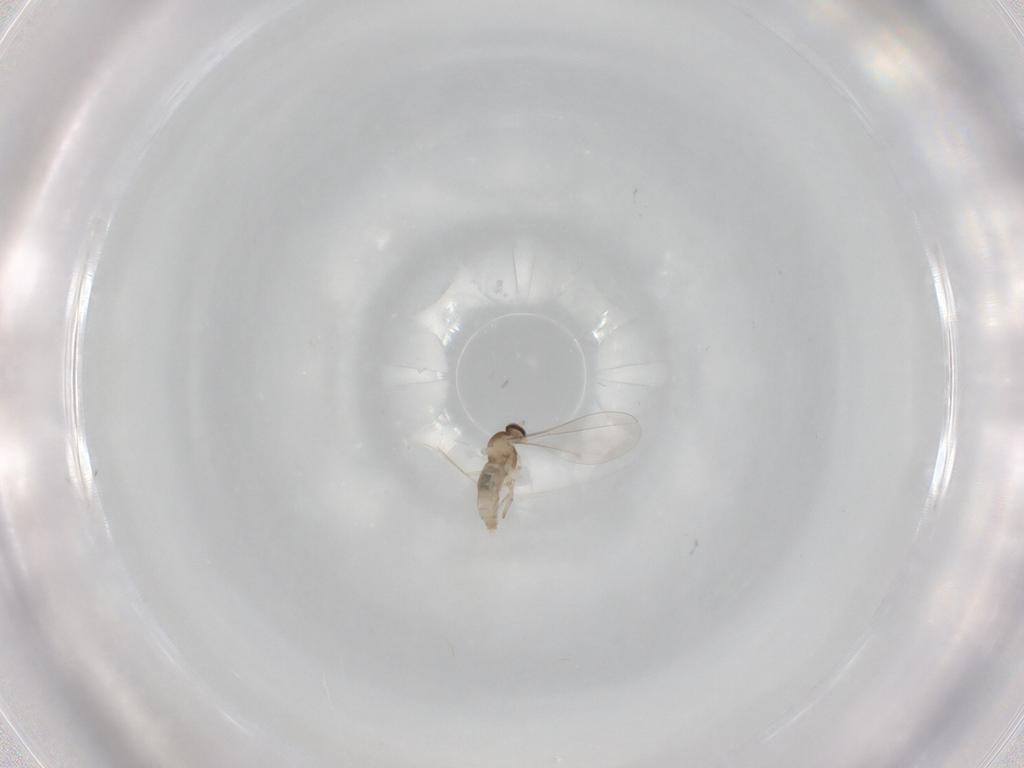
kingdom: Animalia
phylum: Arthropoda
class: Insecta
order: Diptera
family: Cecidomyiidae
